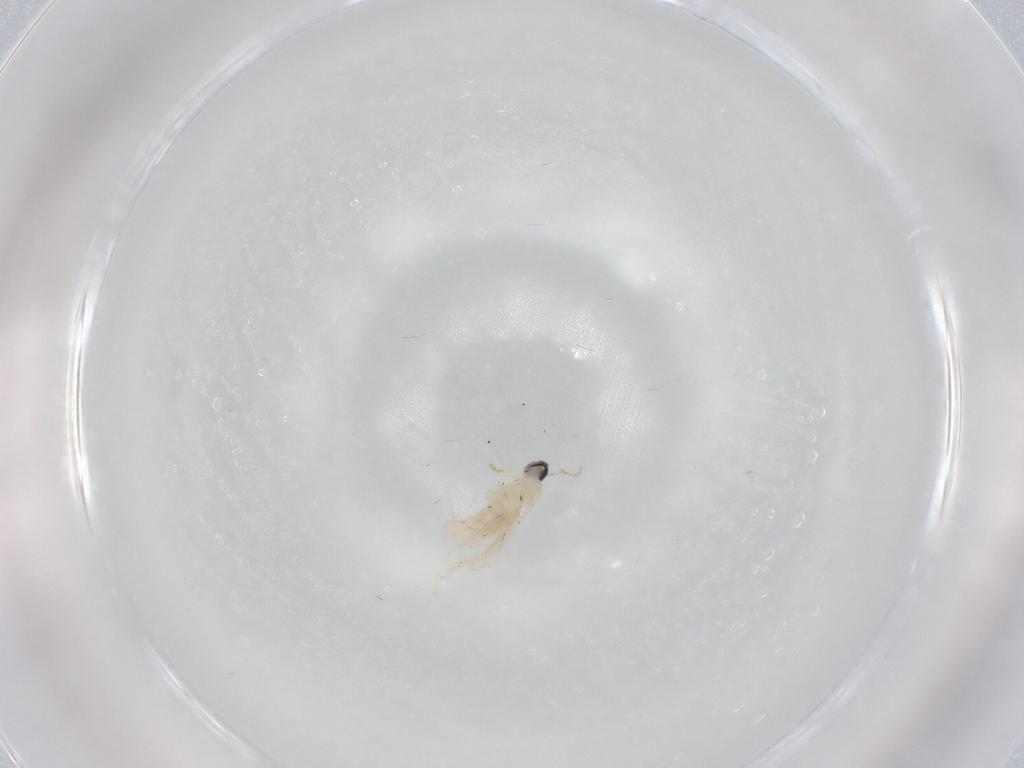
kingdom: Animalia
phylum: Arthropoda
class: Insecta
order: Diptera
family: Cecidomyiidae
